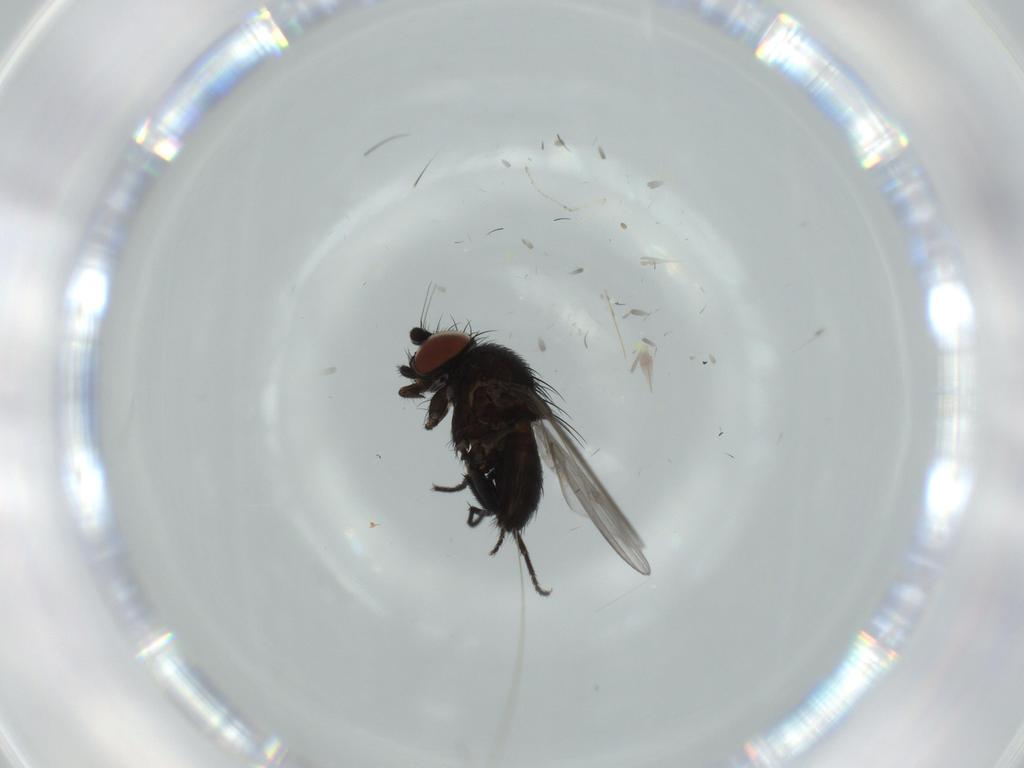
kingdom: Animalia
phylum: Arthropoda
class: Insecta
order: Diptera
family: Milichiidae
